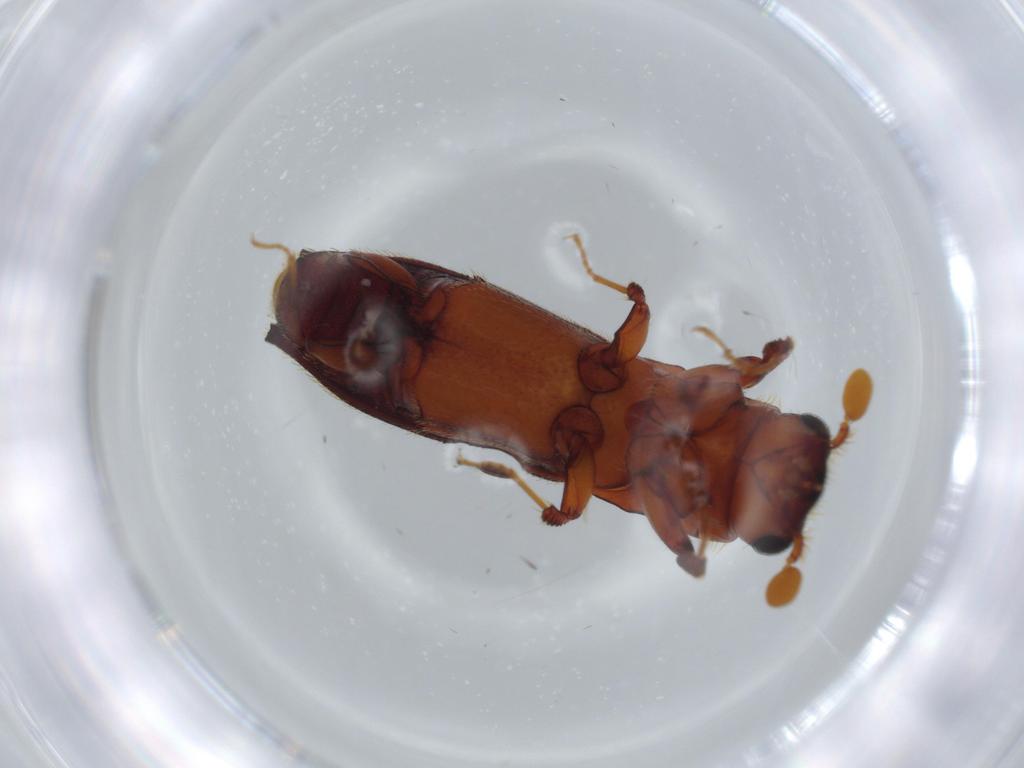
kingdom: Animalia
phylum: Arthropoda
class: Insecta
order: Coleoptera
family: Curculionidae
